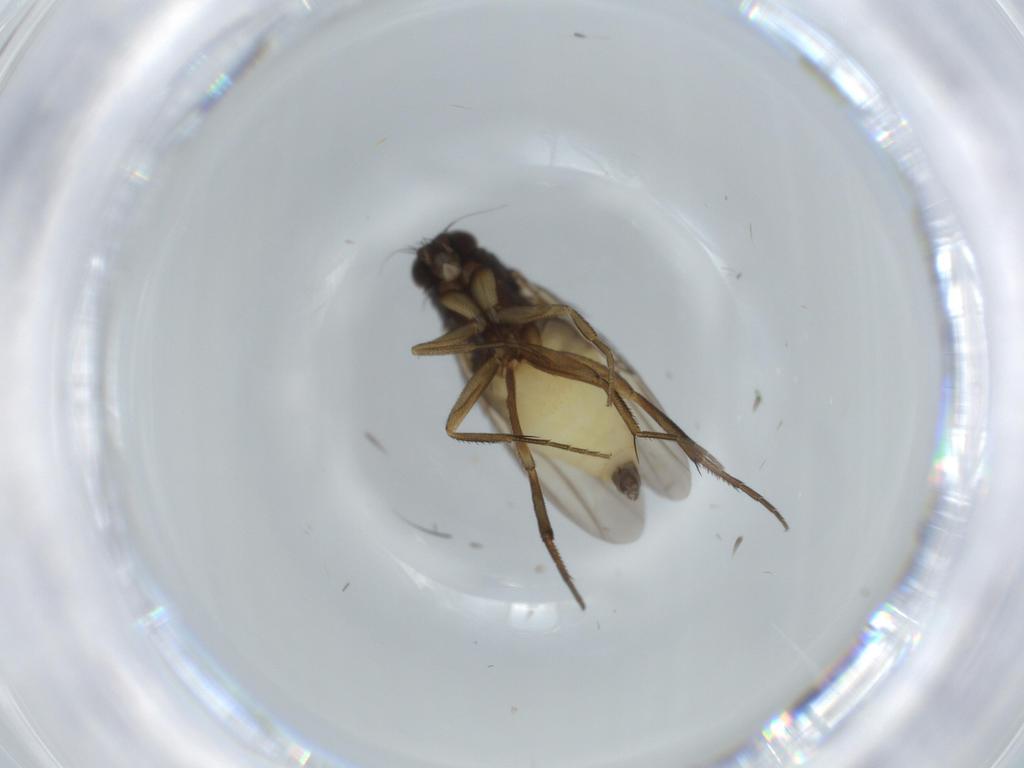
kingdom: Animalia
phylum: Arthropoda
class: Insecta
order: Diptera
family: Phoridae
